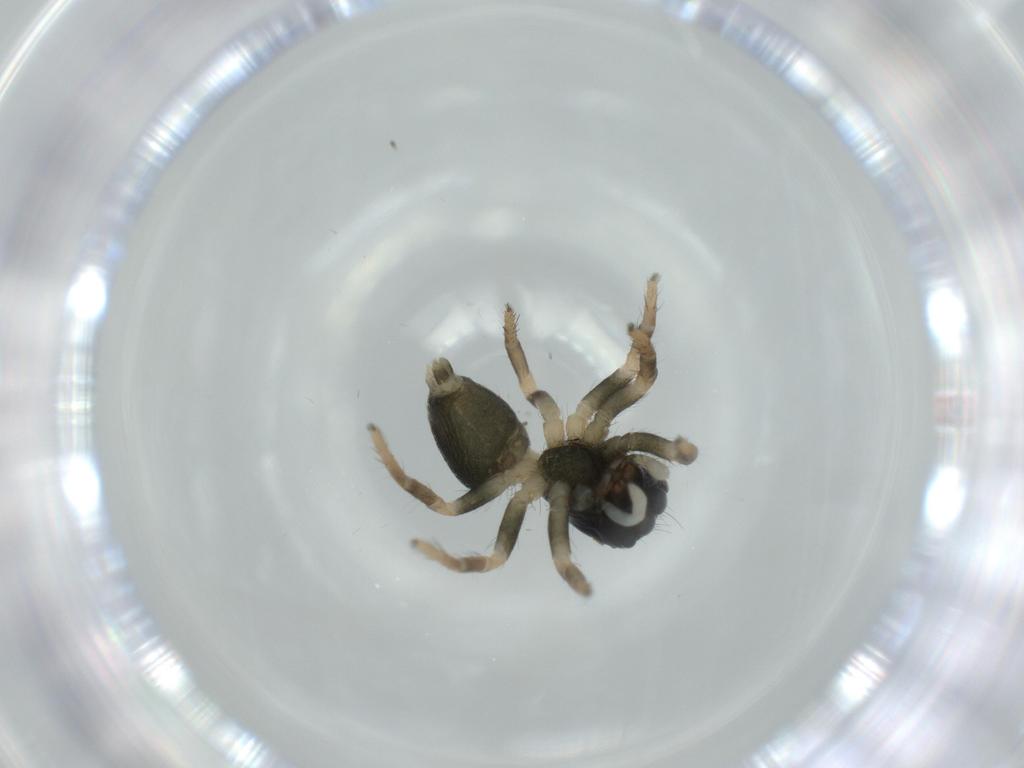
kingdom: Animalia
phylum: Arthropoda
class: Arachnida
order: Araneae
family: Salticidae
